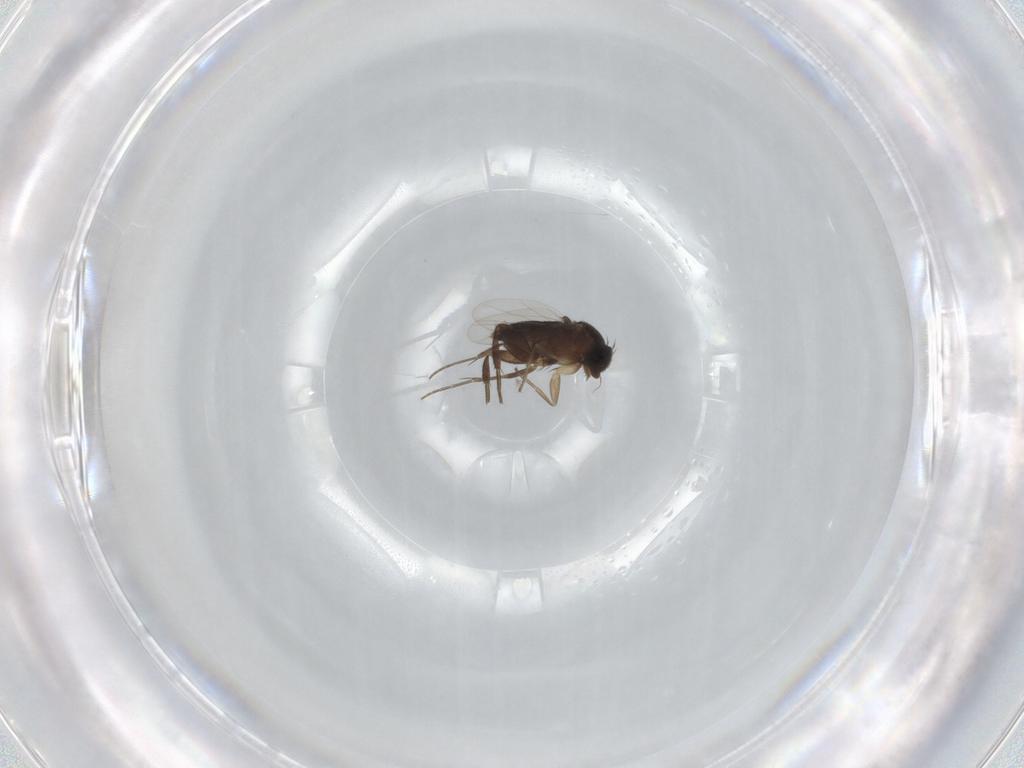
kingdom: Animalia
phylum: Arthropoda
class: Insecta
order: Diptera
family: Phoridae
